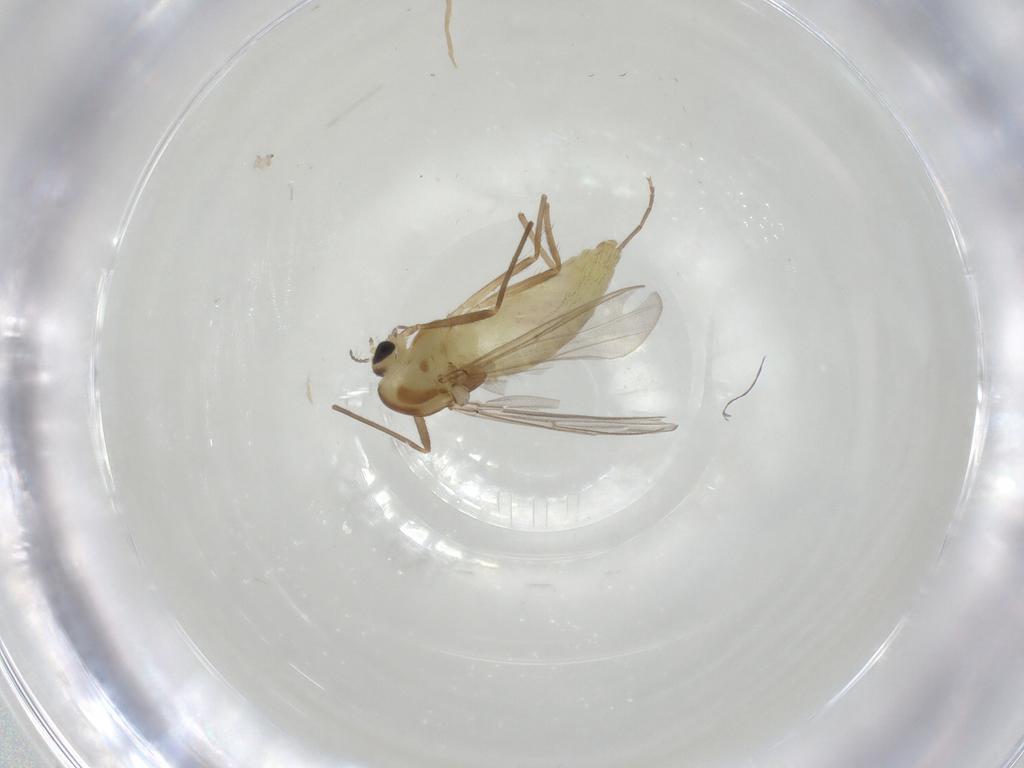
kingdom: Animalia
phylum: Arthropoda
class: Insecta
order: Diptera
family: Chironomidae
